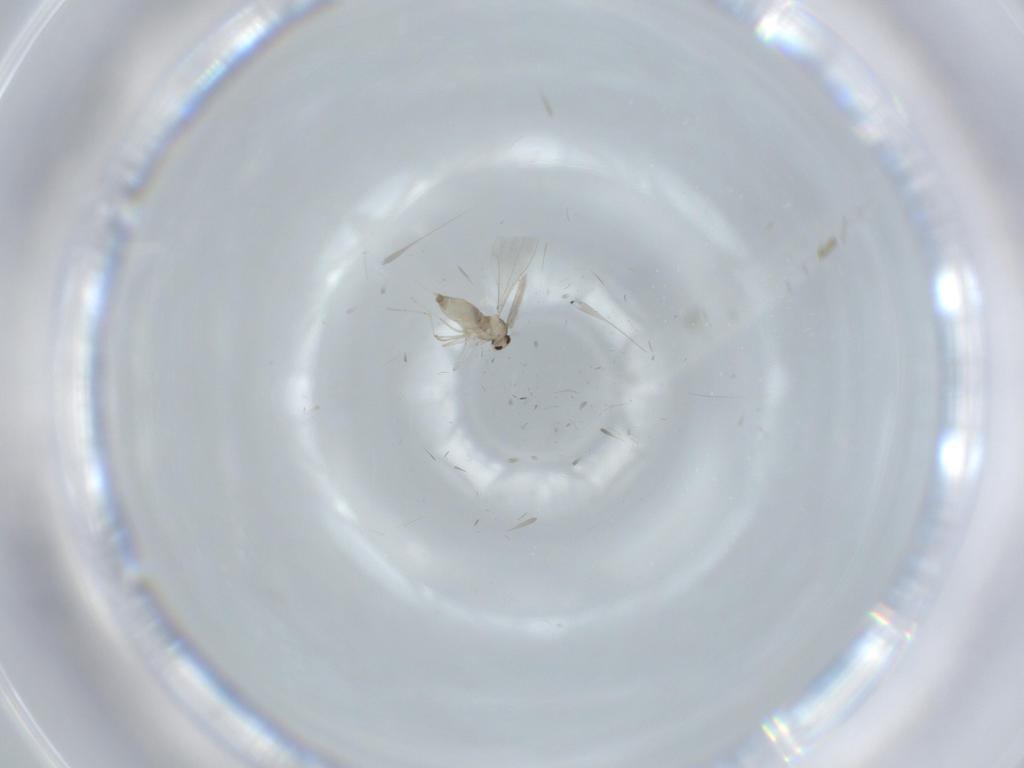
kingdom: Animalia
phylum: Arthropoda
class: Insecta
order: Diptera
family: Cecidomyiidae
